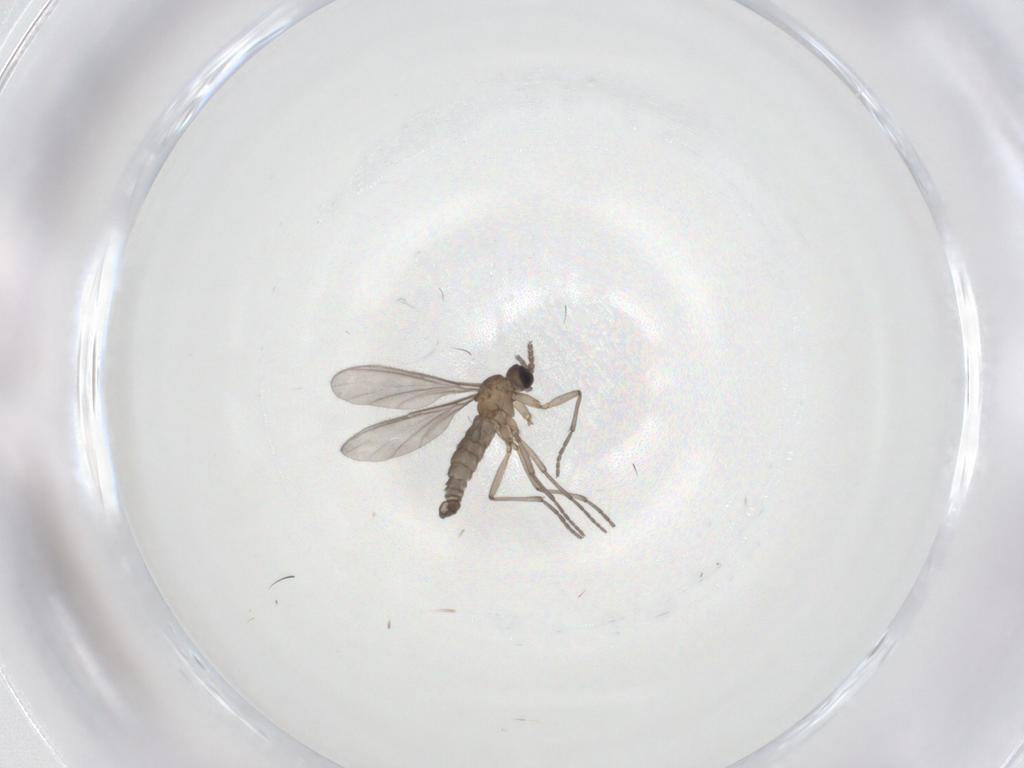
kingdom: Animalia
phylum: Arthropoda
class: Insecta
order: Diptera
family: Sciaridae
